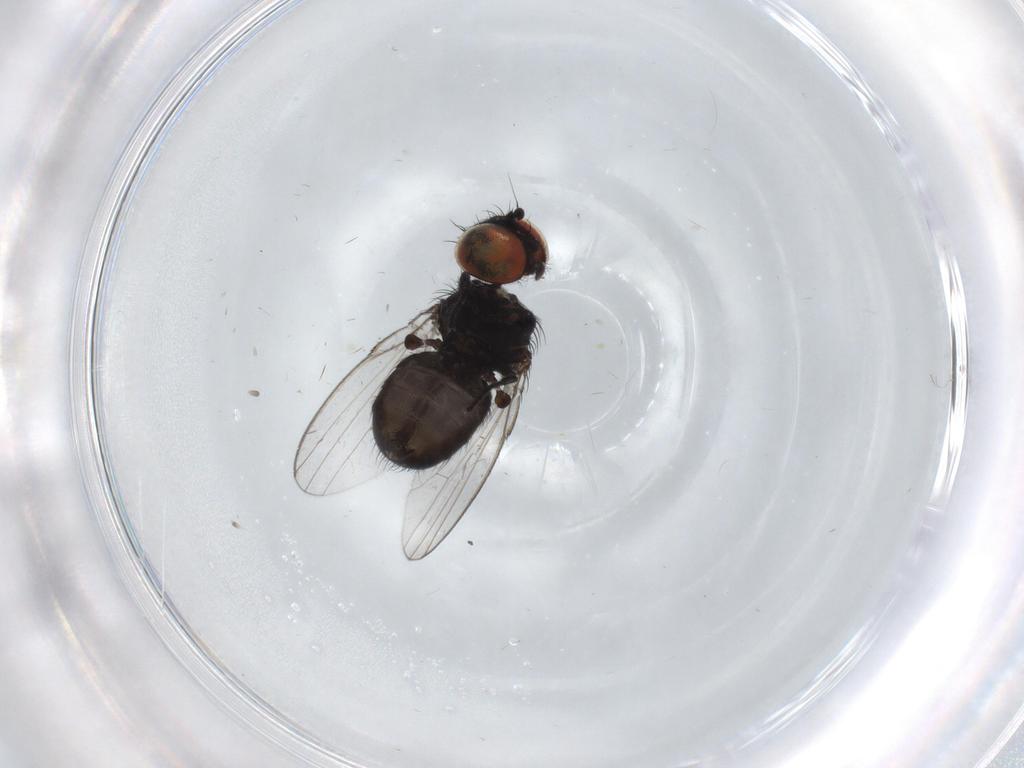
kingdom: Animalia
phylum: Arthropoda
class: Insecta
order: Diptera
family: Milichiidae
